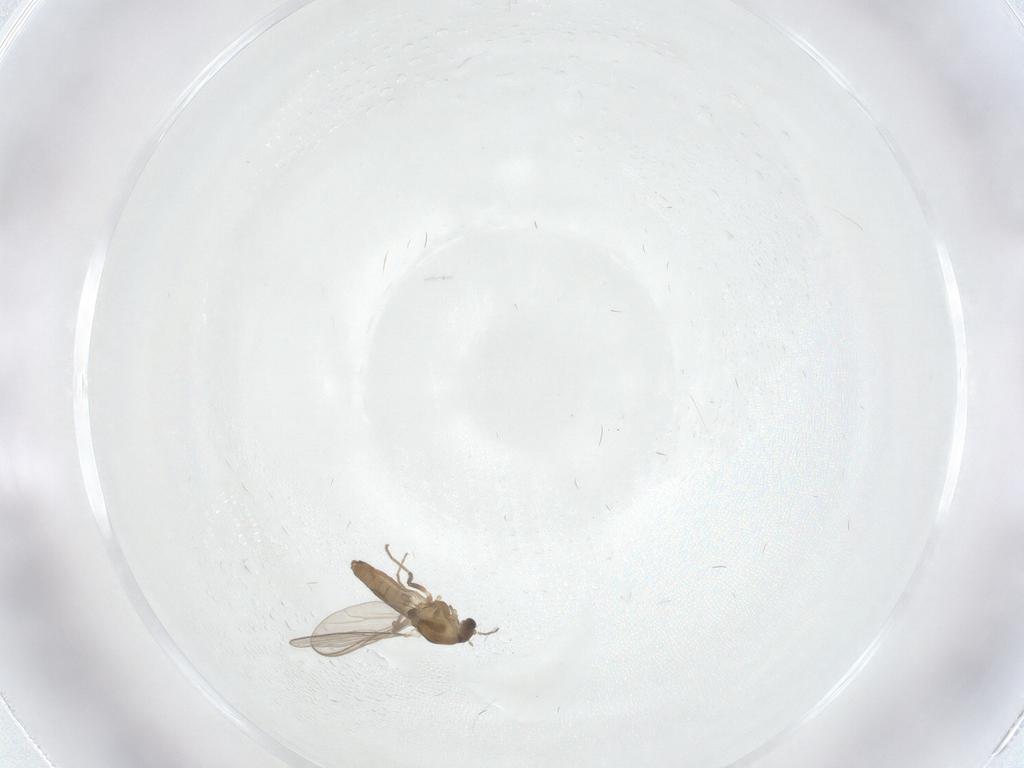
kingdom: Animalia
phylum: Arthropoda
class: Insecta
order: Diptera
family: Chironomidae
